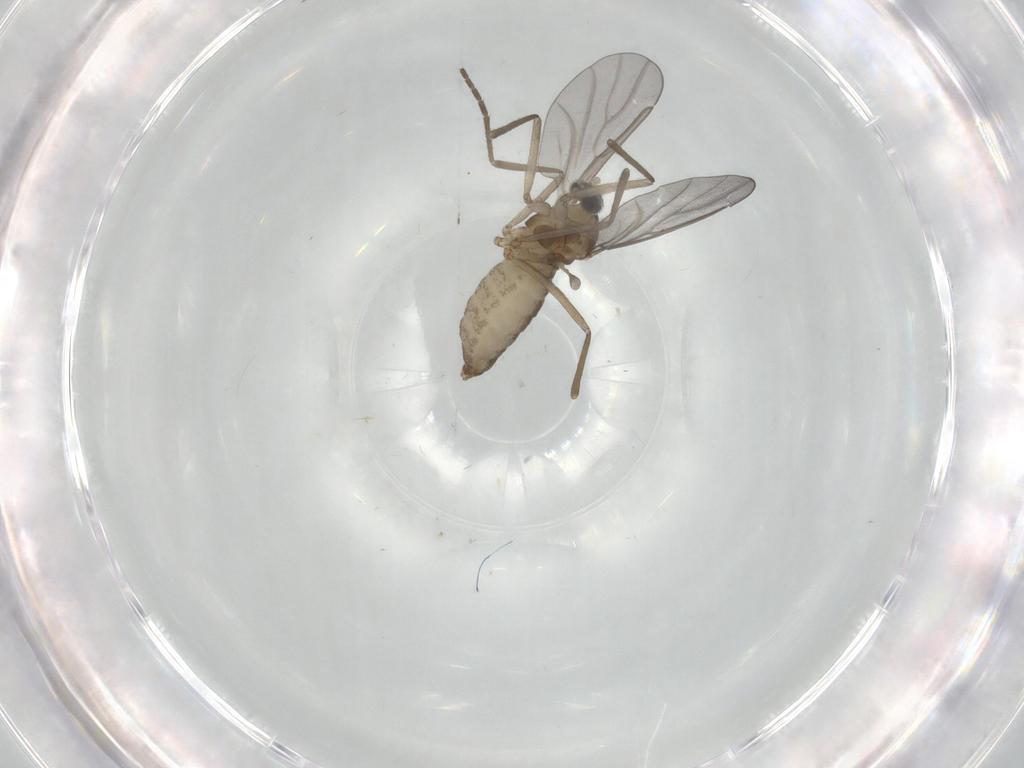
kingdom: Animalia
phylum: Arthropoda
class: Insecta
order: Diptera
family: Cecidomyiidae
